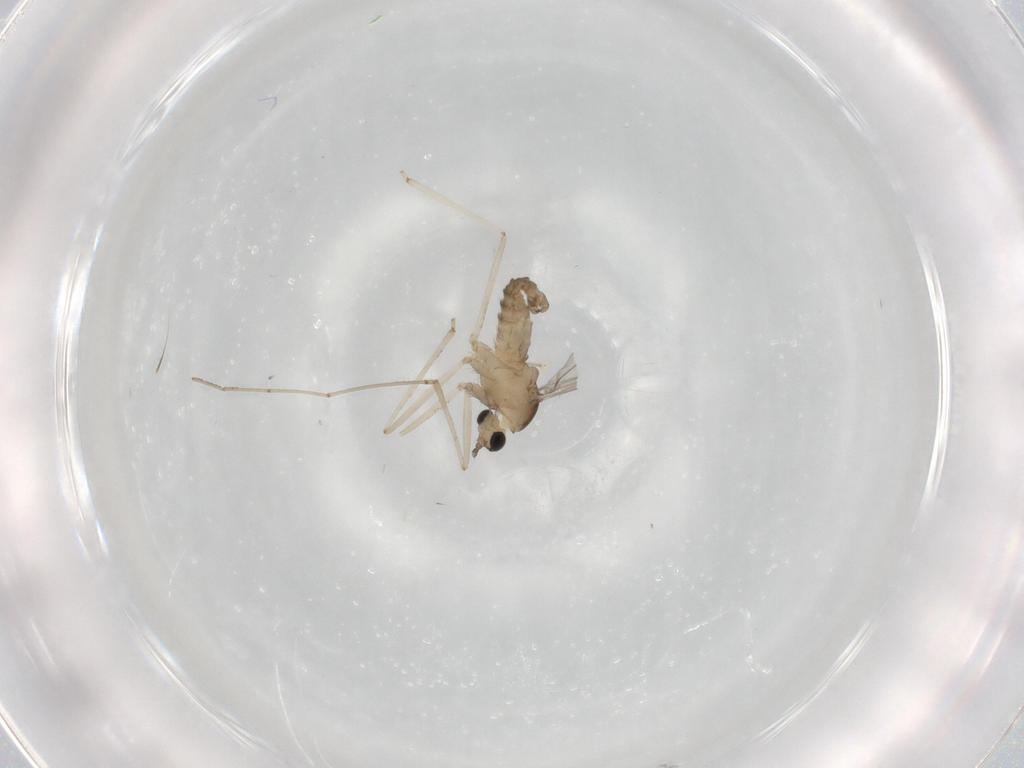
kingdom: Animalia
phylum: Arthropoda
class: Insecta
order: Diptera
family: Cecidomyiidae
